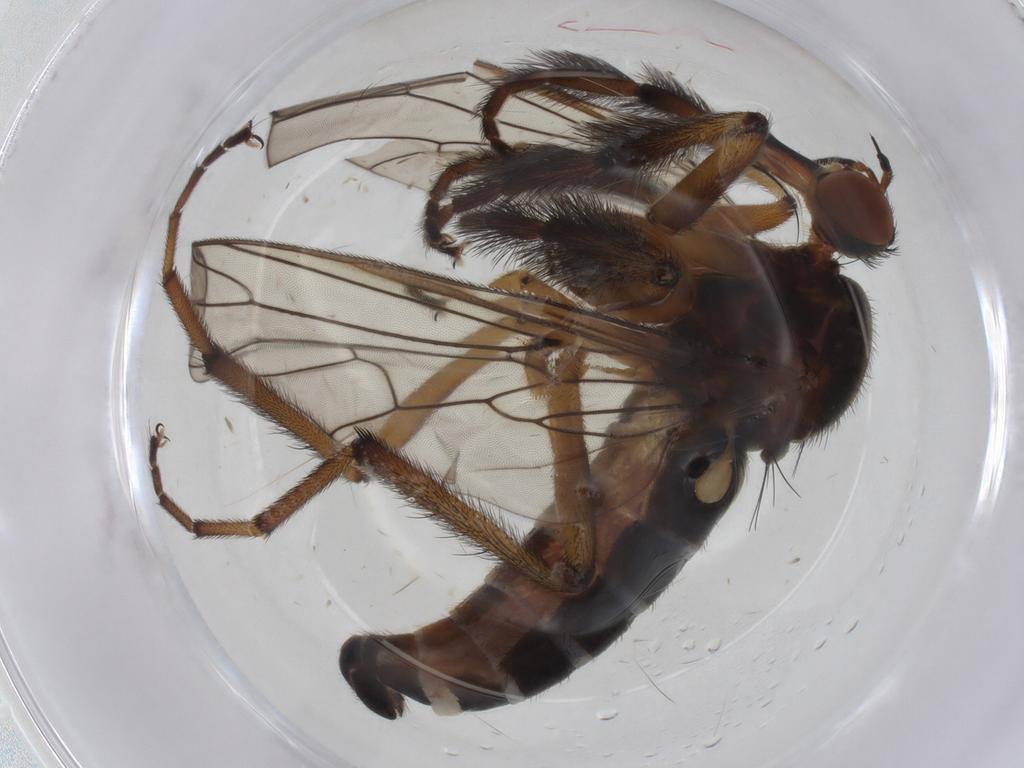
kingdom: Animalia
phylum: Arthropoda
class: Insecta
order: Diptera
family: Empididae
